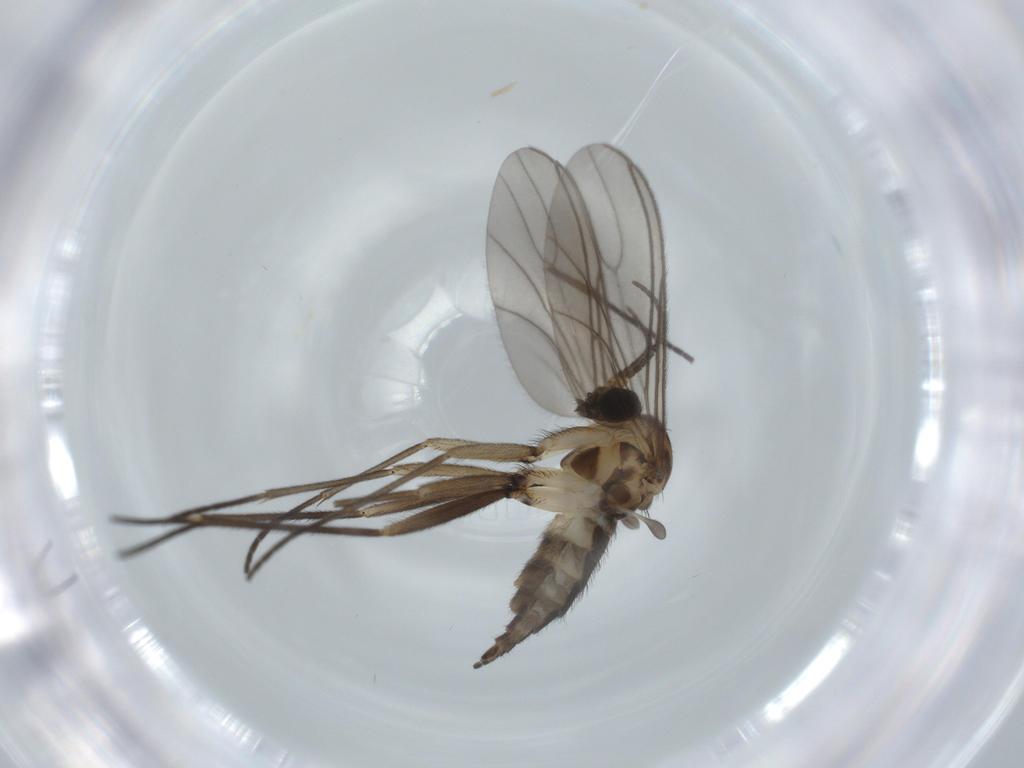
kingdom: Animalia
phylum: Arthropoda
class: Insecta
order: Diptera
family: Sciaridae
